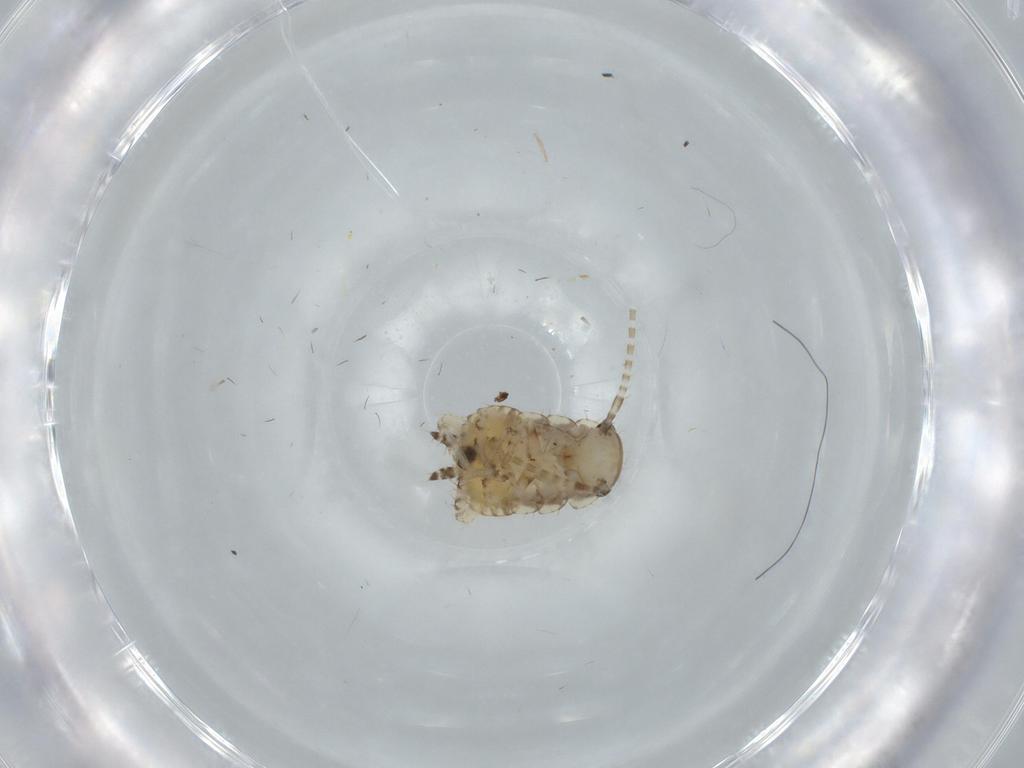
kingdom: Animalia
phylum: Arthropoda
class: Insecta
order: Blattodea
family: Ectobiidae
